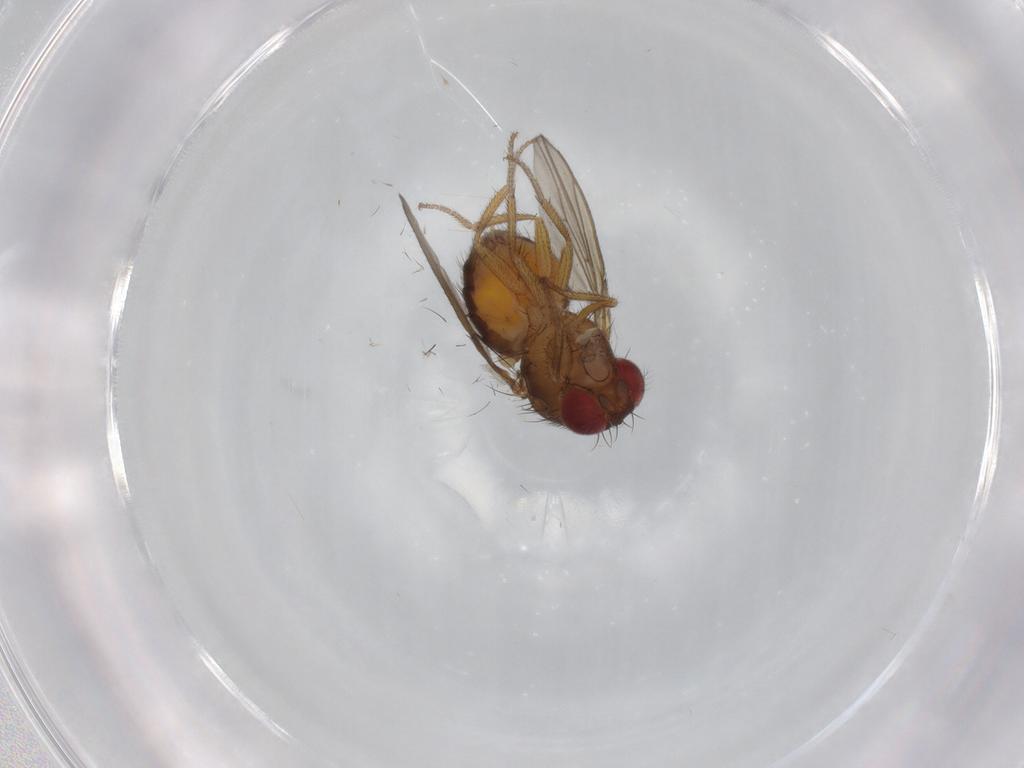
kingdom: Animalia
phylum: Arthropoda
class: Insecta
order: Diptera
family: Drosophilidae
